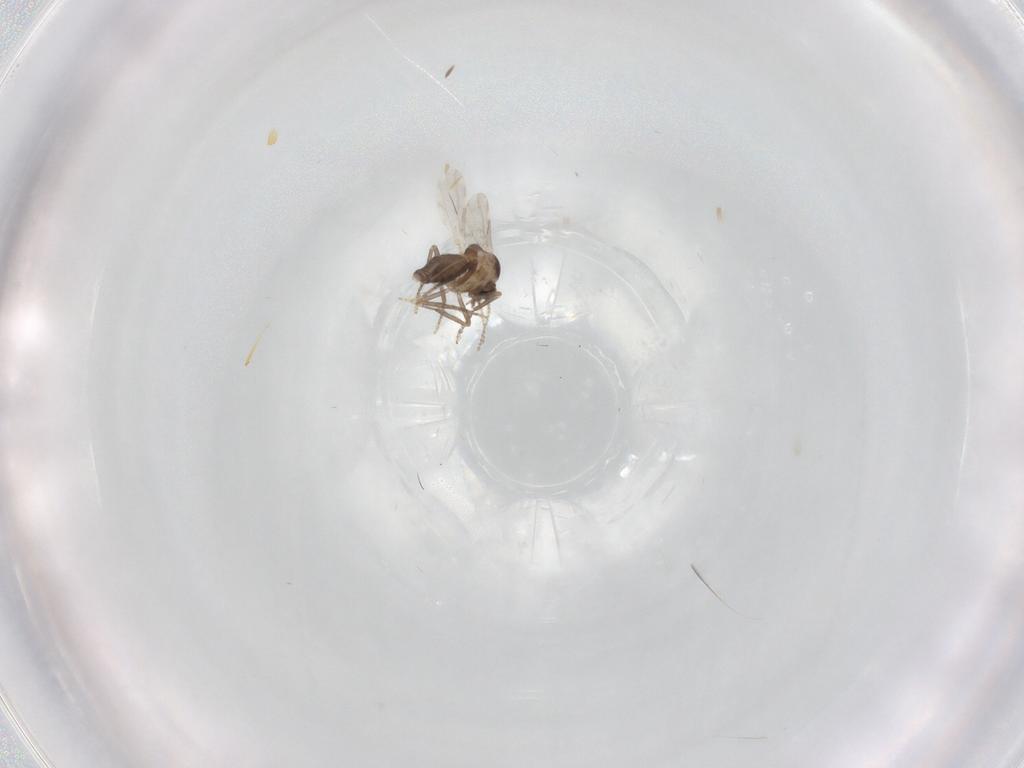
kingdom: Animalia
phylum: Arthropoda
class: Insecta
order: Diptera
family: Ceratopogonidae
